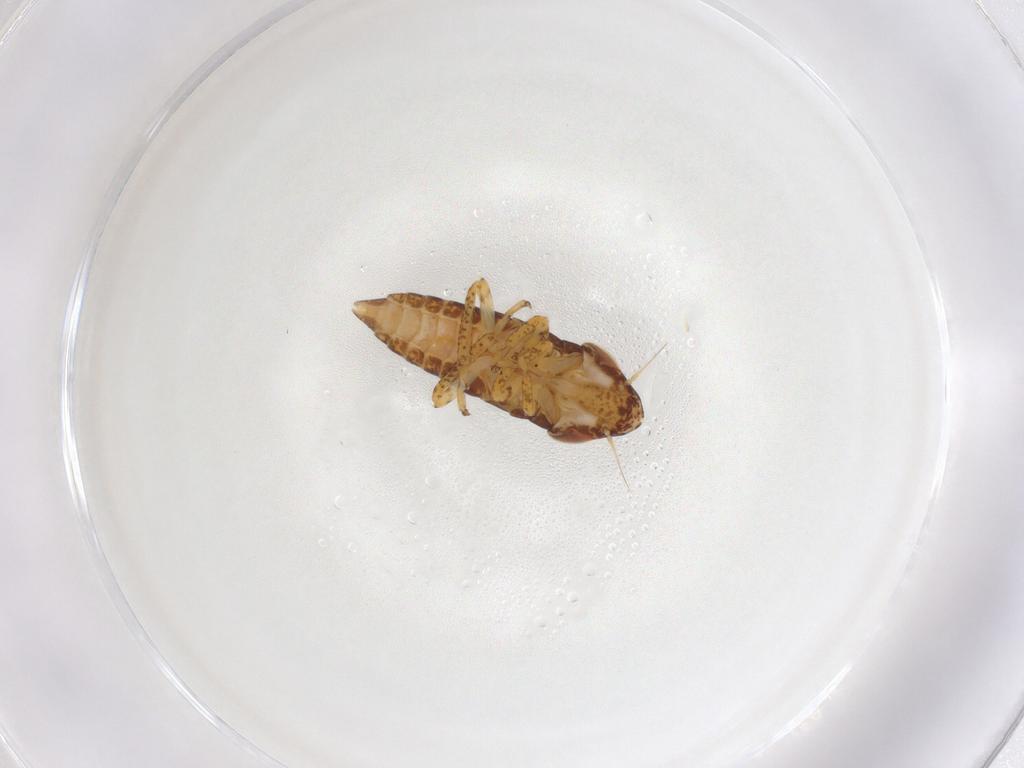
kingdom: Animalia
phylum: Arthropoda
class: Insecta
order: Hemiptera
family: Cicadellidae
